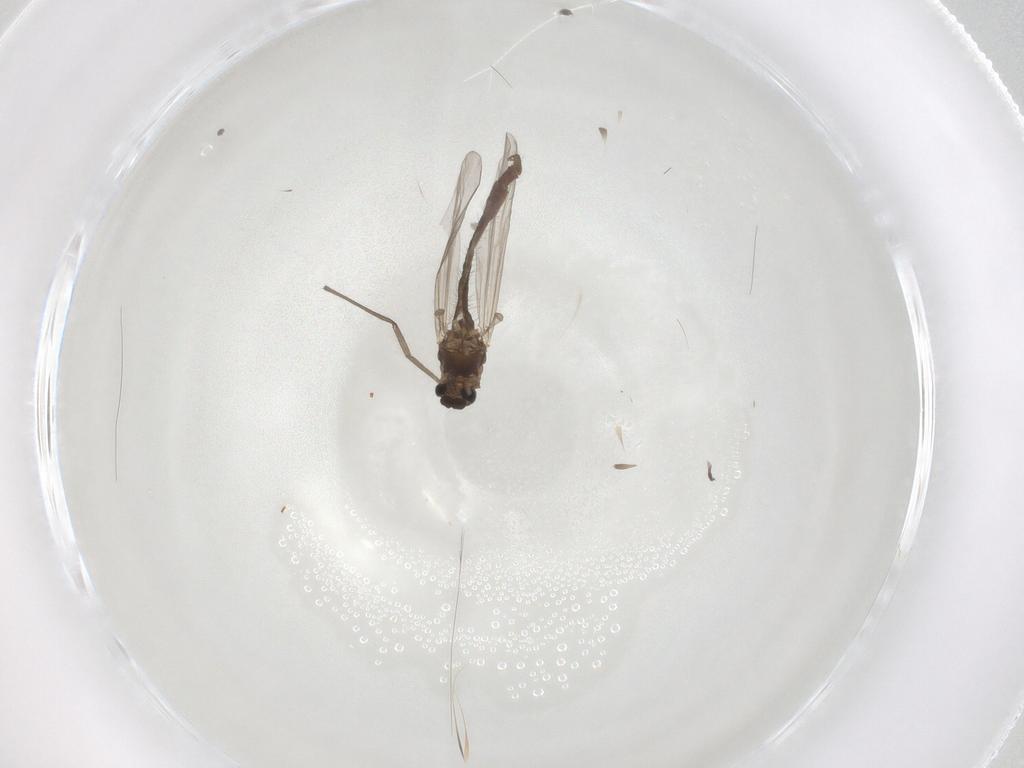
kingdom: Animalia
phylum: Arthropoda
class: Insecta
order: Diptera
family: Chironomidae
